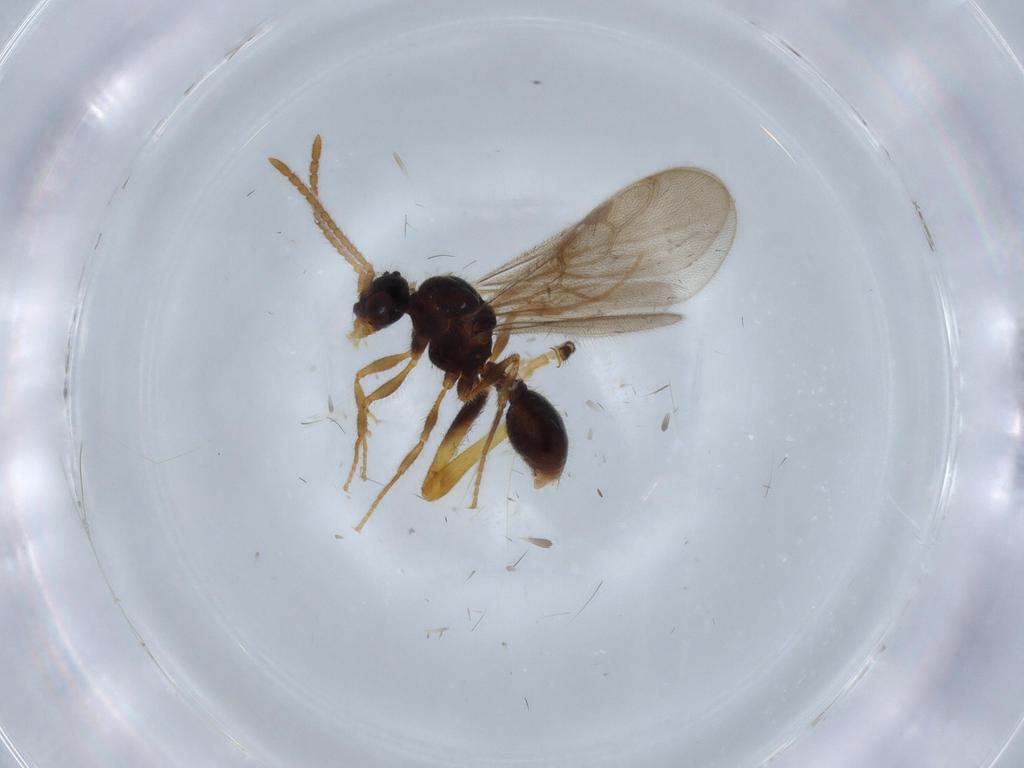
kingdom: Animalia
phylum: Arthropoda
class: Insecta
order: Hymenoptera
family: Formicidae
